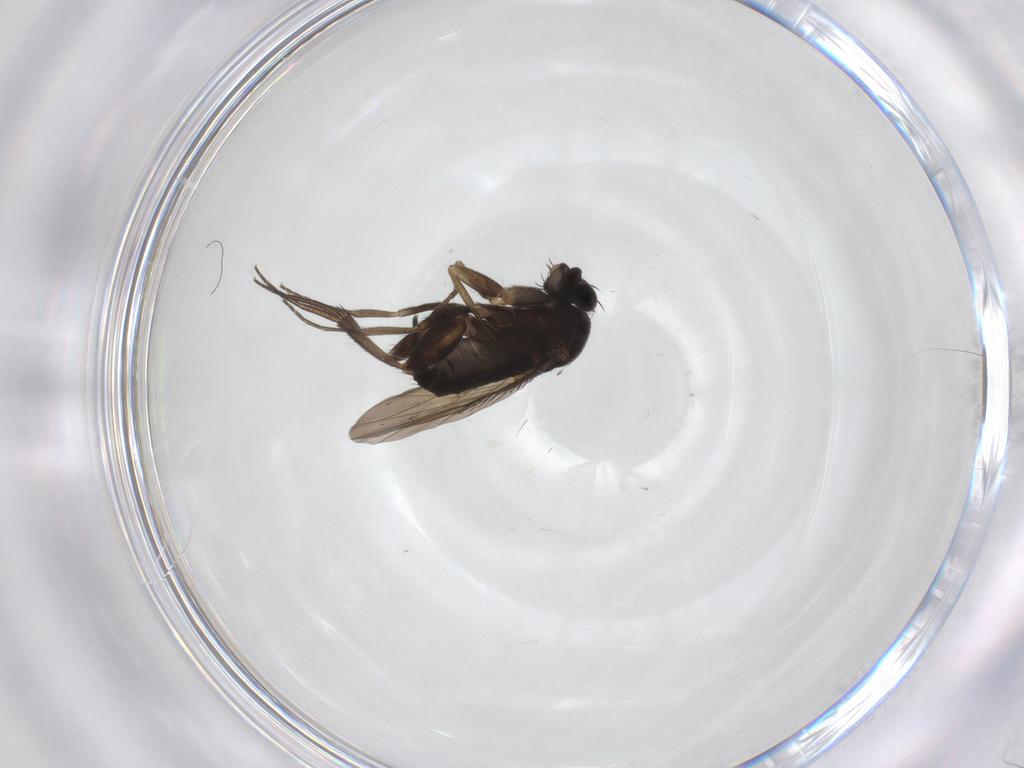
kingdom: Animalia
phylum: Arthropoda
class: Insecta
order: Diptera
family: Phoridae
